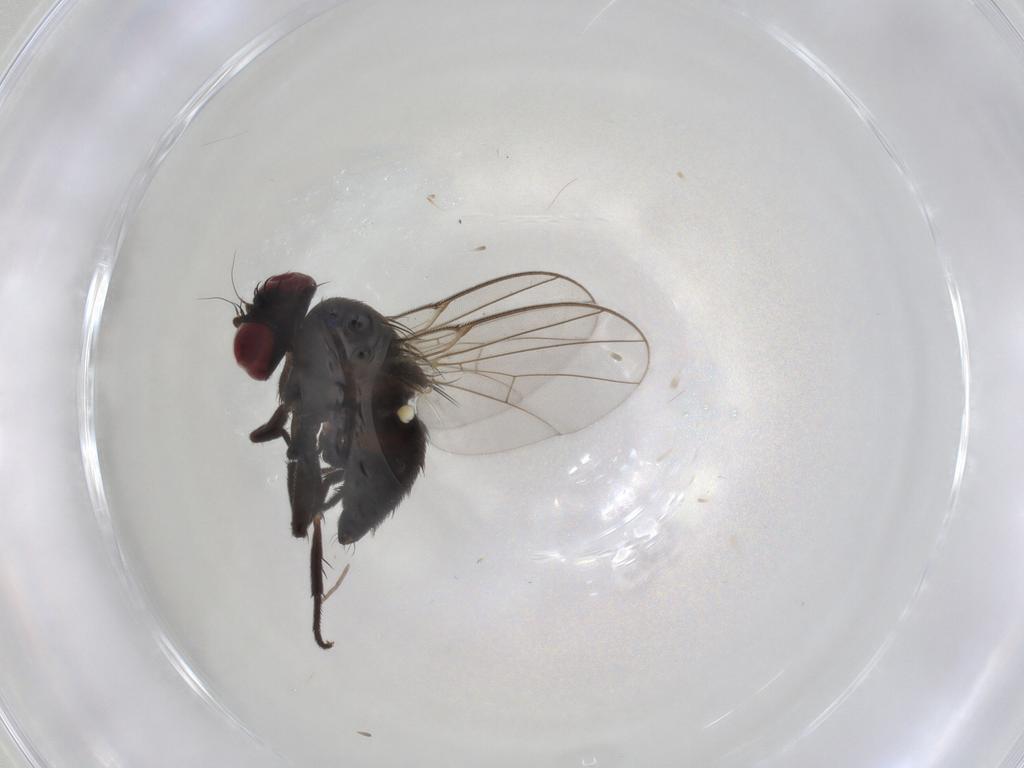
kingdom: Animalia
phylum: Arthropoda
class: Insecta
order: Diptera
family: Agromyzidae
